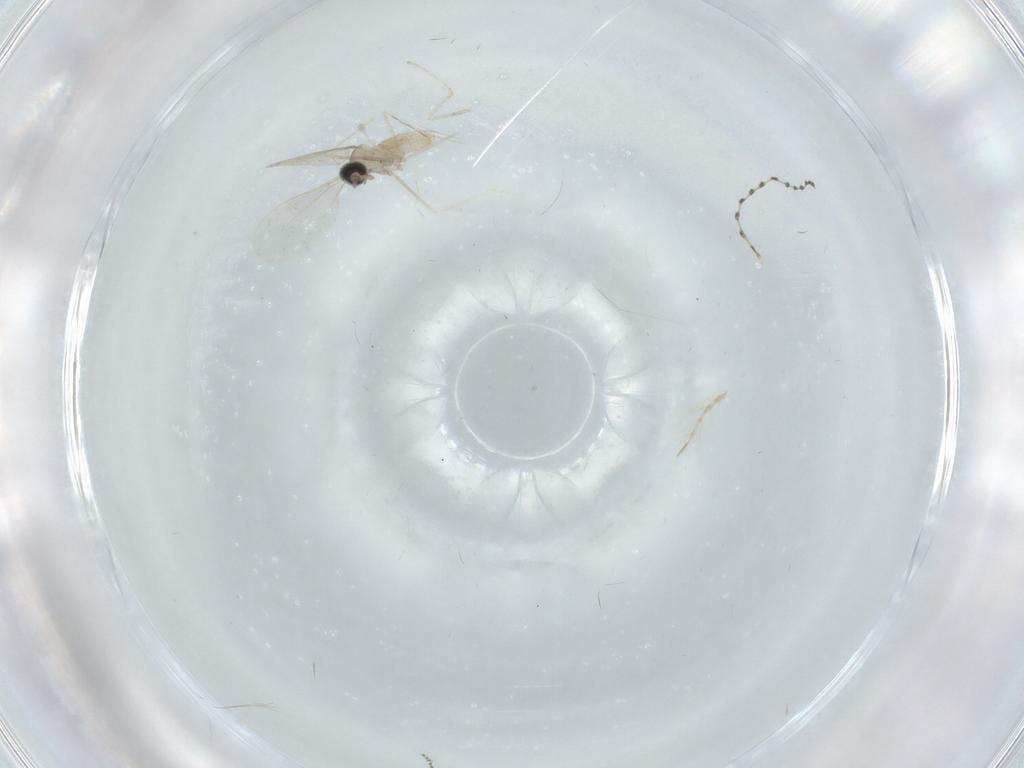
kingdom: Animalia
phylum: Arthropoda
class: Insecta
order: Diptera
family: Cecidomyiidae
